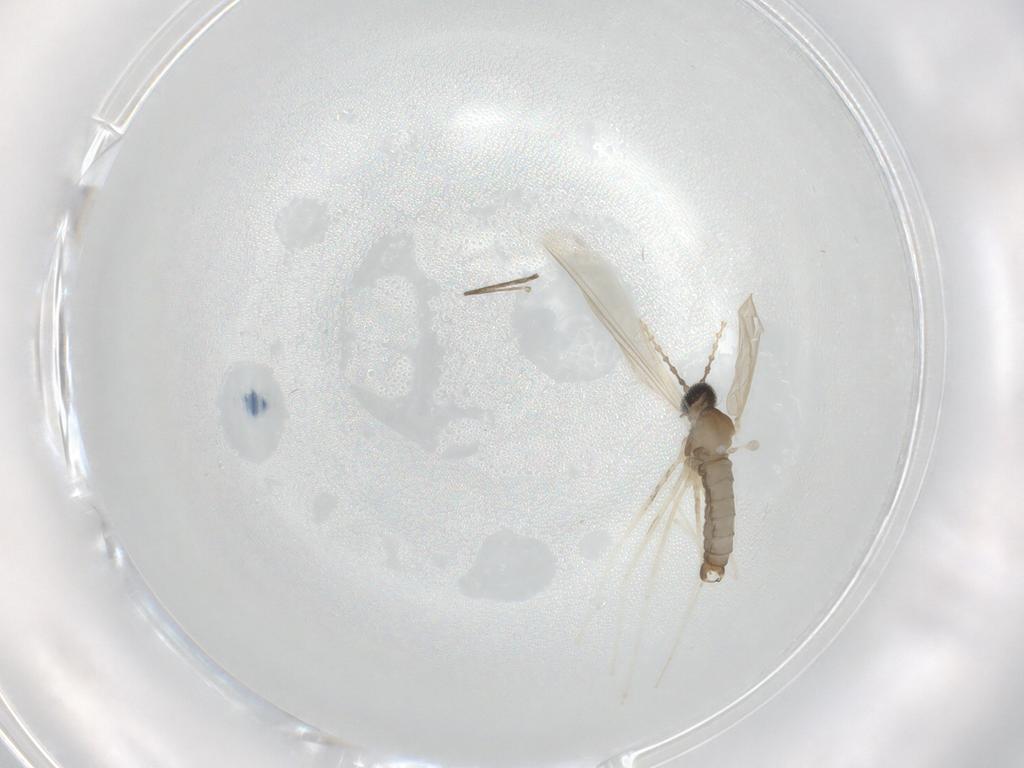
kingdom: Animalia
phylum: Arthropoda
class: Insecta
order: Diptera
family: Cecidomyiidae
